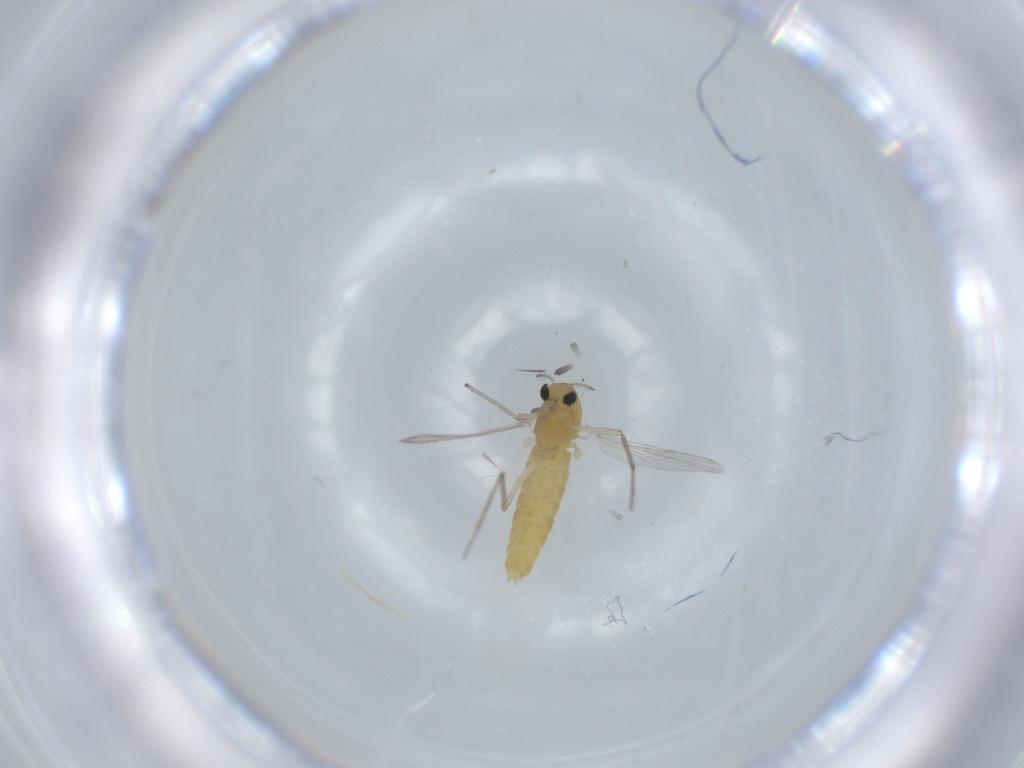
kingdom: Animalia
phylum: Arthropoda
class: Insecta
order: Diptera
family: Chironomidae
